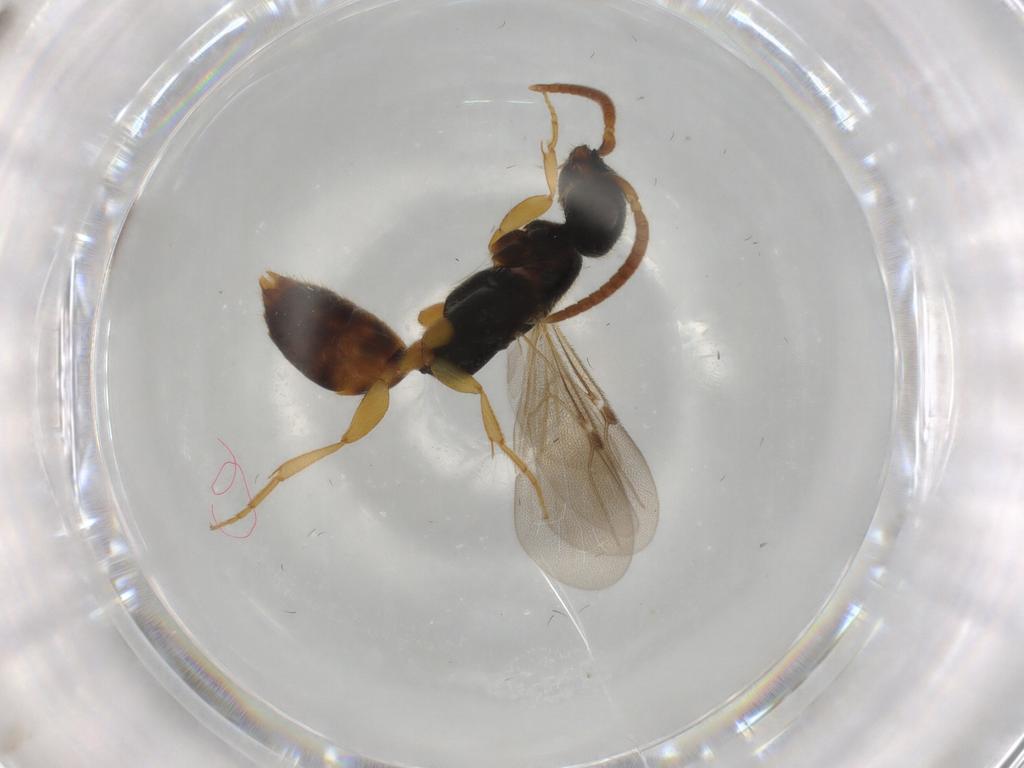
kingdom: Animalia
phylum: Arthropoda
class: Insecta
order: Hymenoptera
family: Bethylidae
